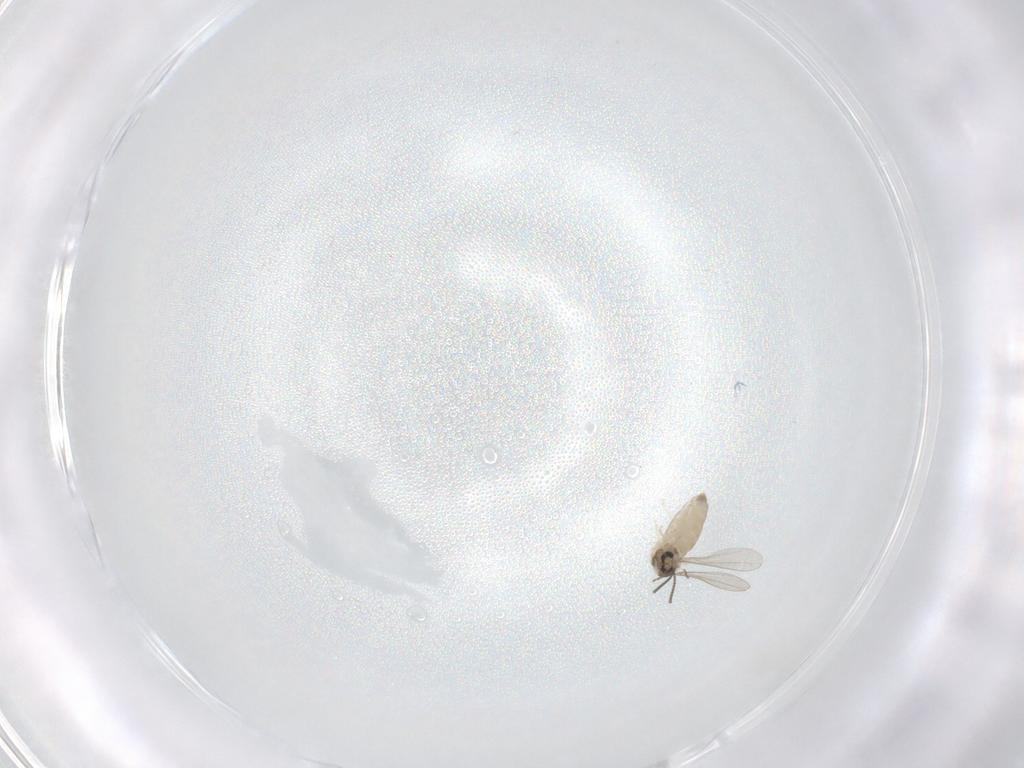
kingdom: Animalia
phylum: Arthropoda
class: Insecta
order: Diptera
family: Cecidomyiidae
